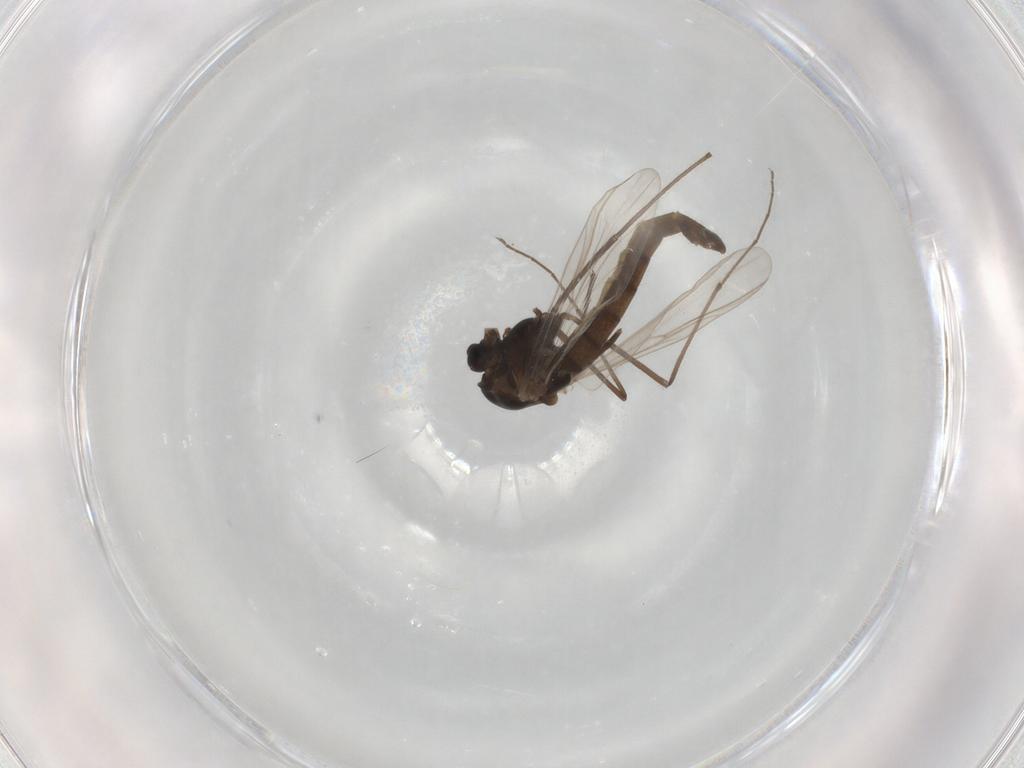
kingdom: Animalia
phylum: Arthropoda
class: Insecta
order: Diptera
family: Chironomidae
